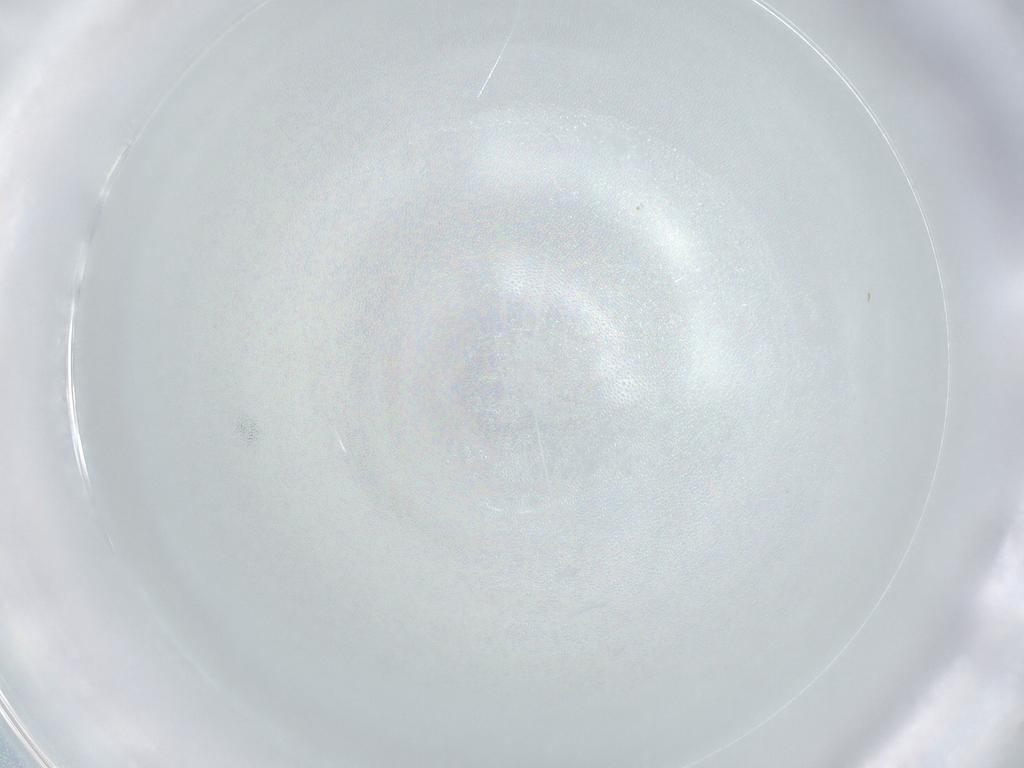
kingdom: Animalia
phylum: Arthropoda
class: Insecta
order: Diptera
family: Cecidomyiidae
